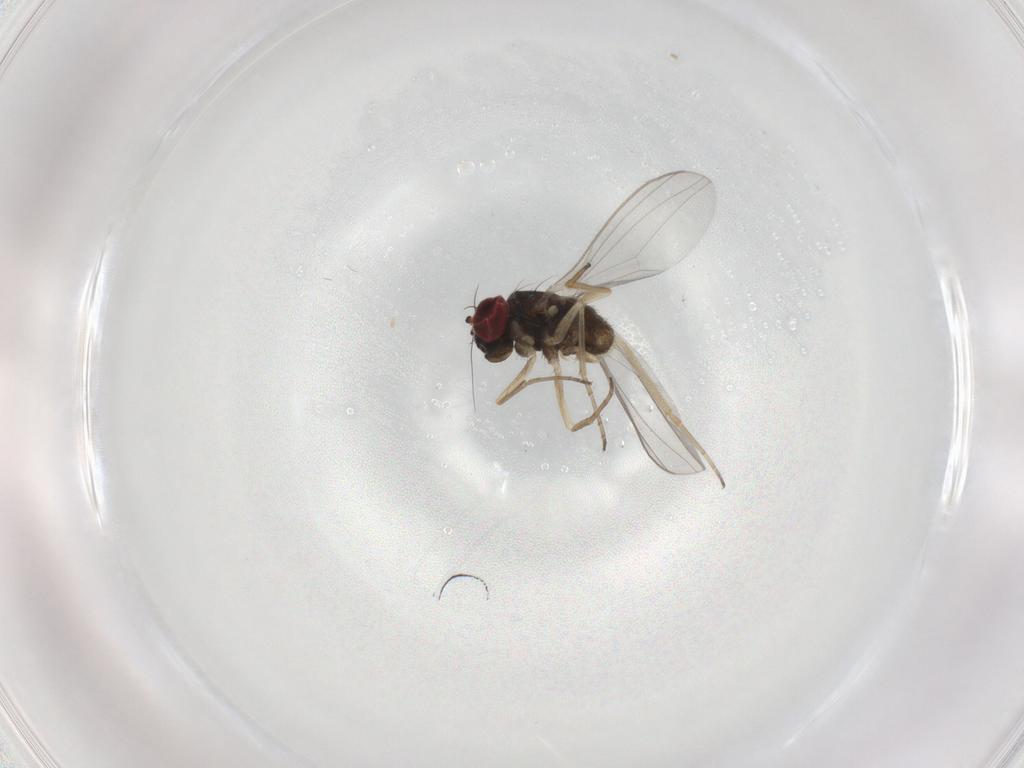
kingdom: Animalia
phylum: Arthropoda
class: Insecta
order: Diptera
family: Dolichopodidae
